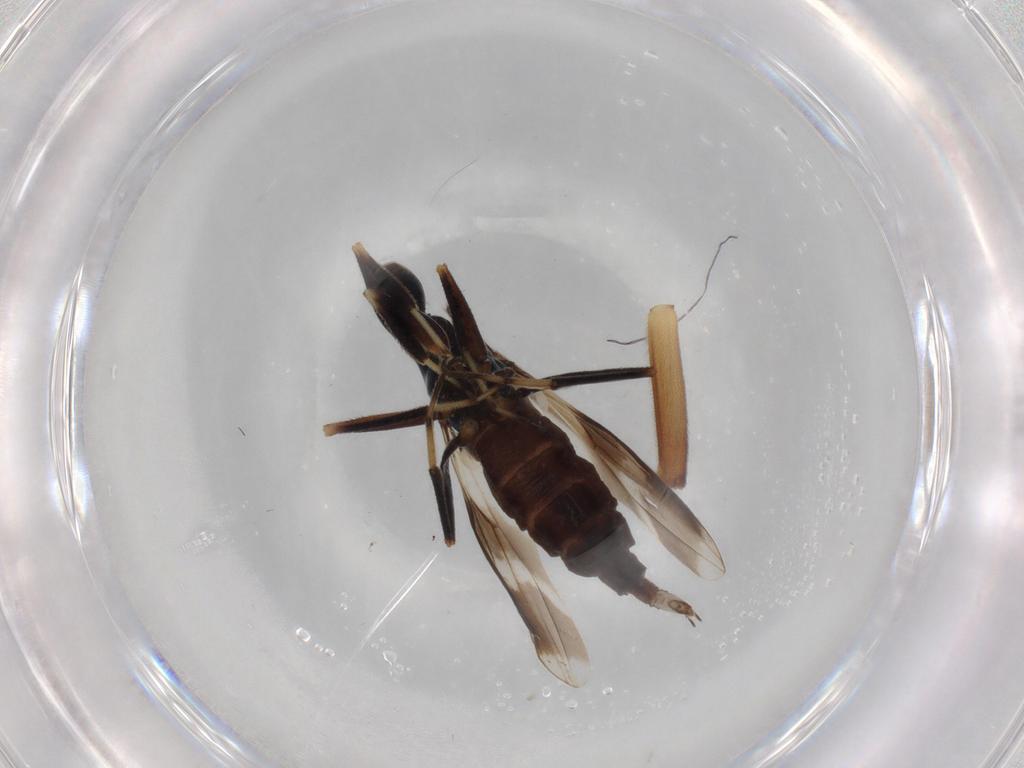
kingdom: Animalia
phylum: Arthropoda
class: Insecta
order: Diptera
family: Hybotidae
